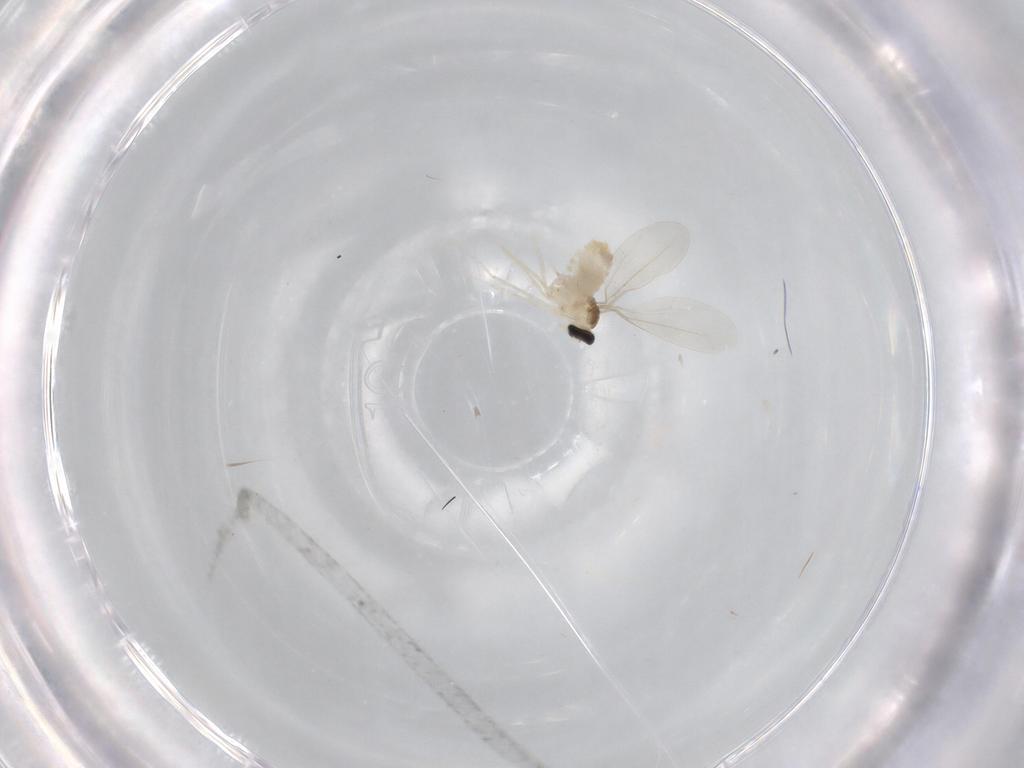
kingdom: Animalia
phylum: Arthropoda
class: Insecta
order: Diptera
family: Cecidomyiidae
